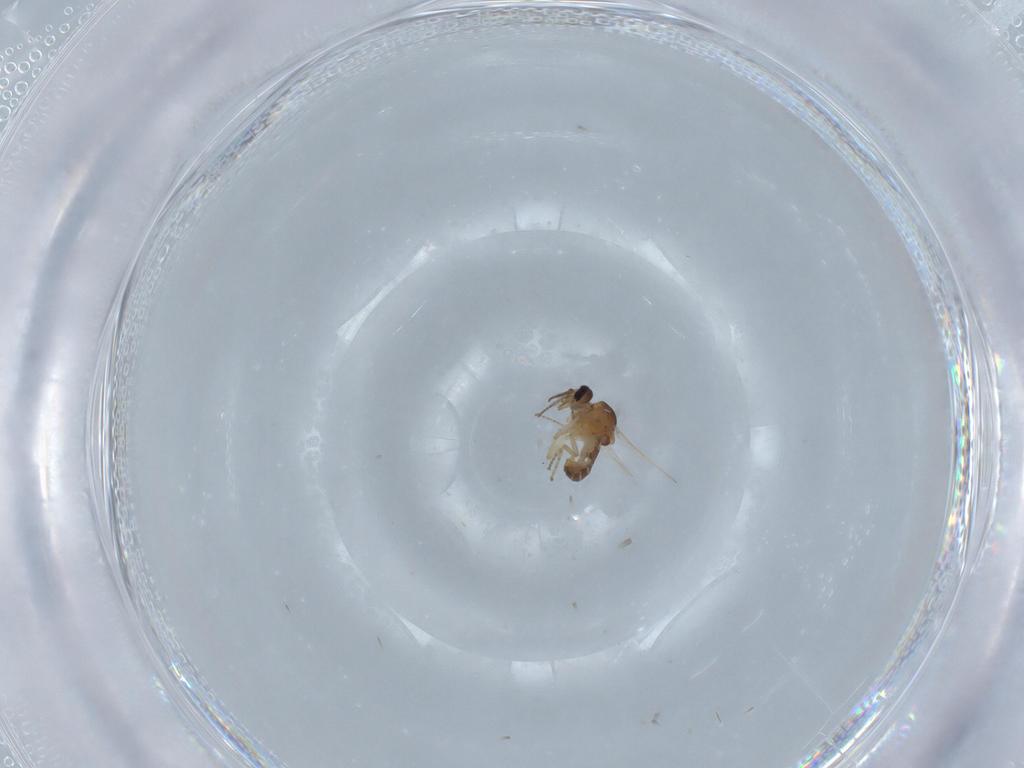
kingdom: Animalia
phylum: Arthropoda
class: Insecta
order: Diptera
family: Ceratopogonidae
